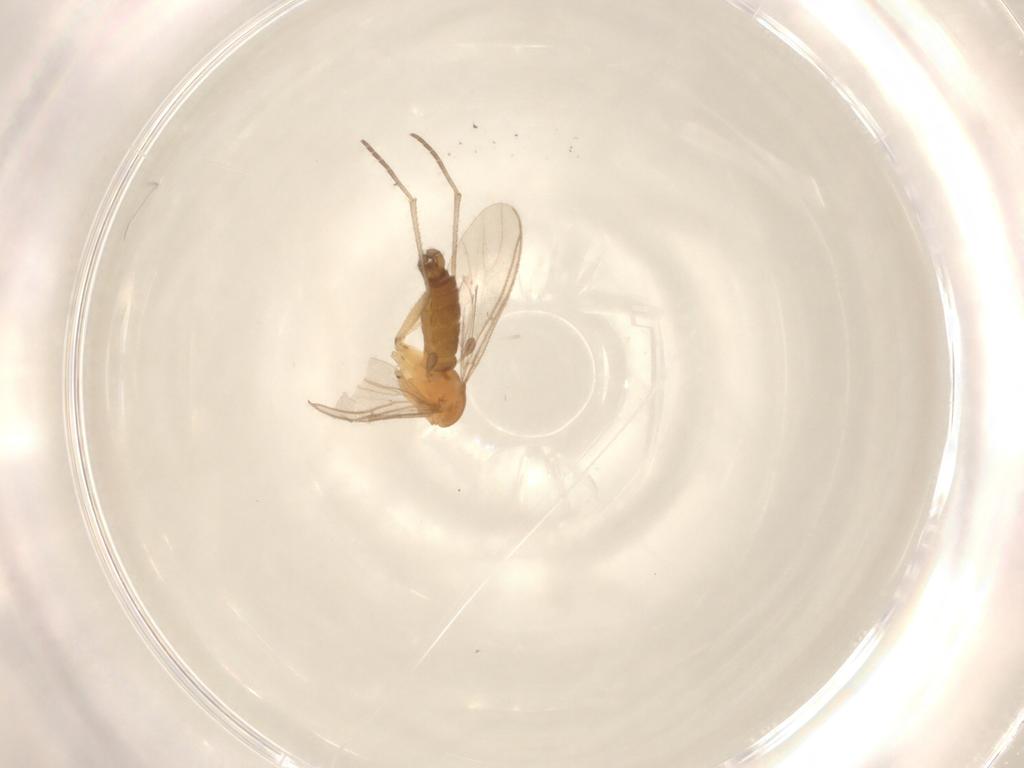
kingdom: Animalia
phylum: Arthropoda
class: Insecta
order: Diptera
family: Sciaridae
